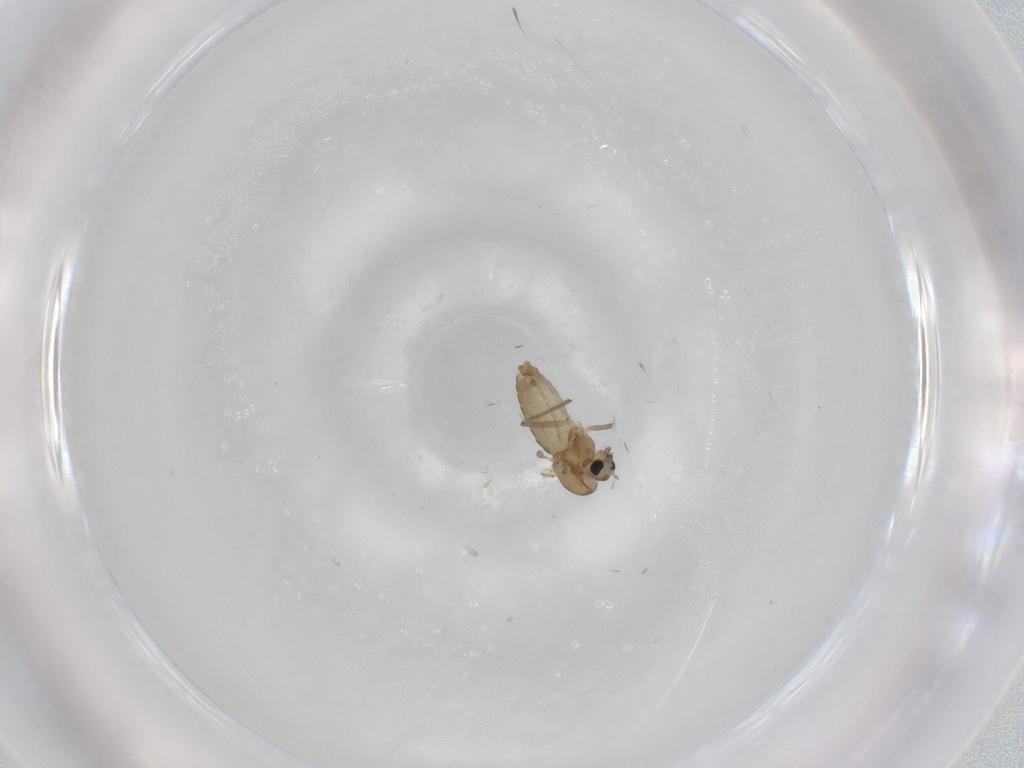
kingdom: Animalia
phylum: Arthropoda
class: Insecta
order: Diptera
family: Chironomidae
